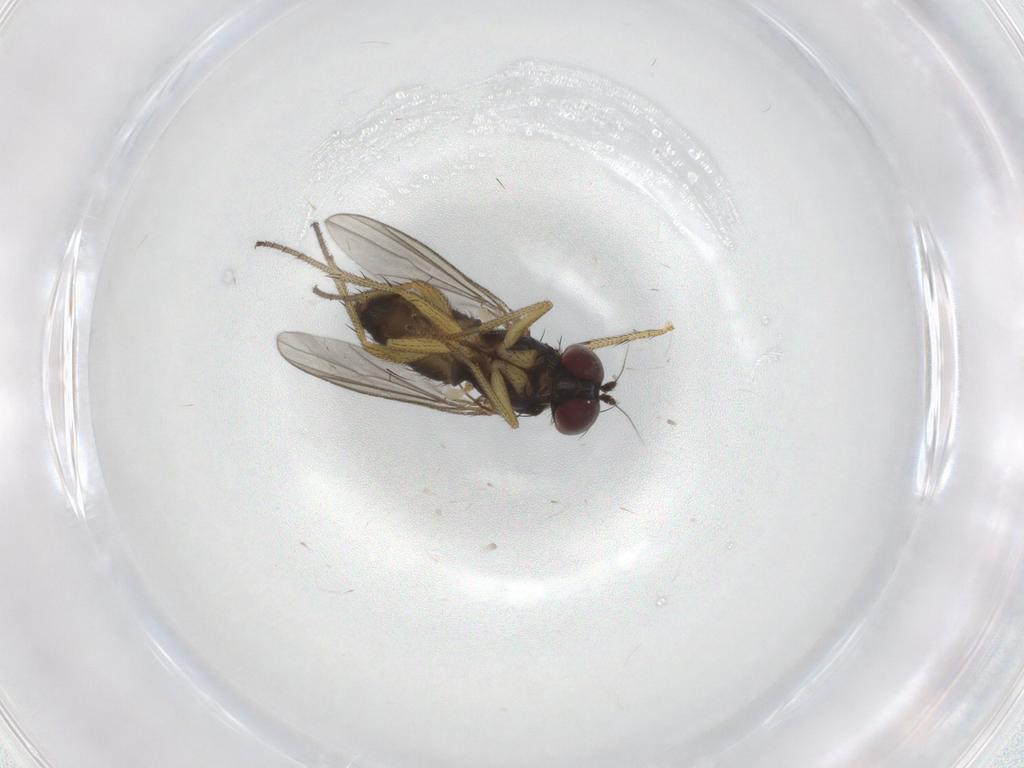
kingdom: Animalia
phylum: Arthropoda
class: Insecta
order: Diptera
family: Dolichopodidae
